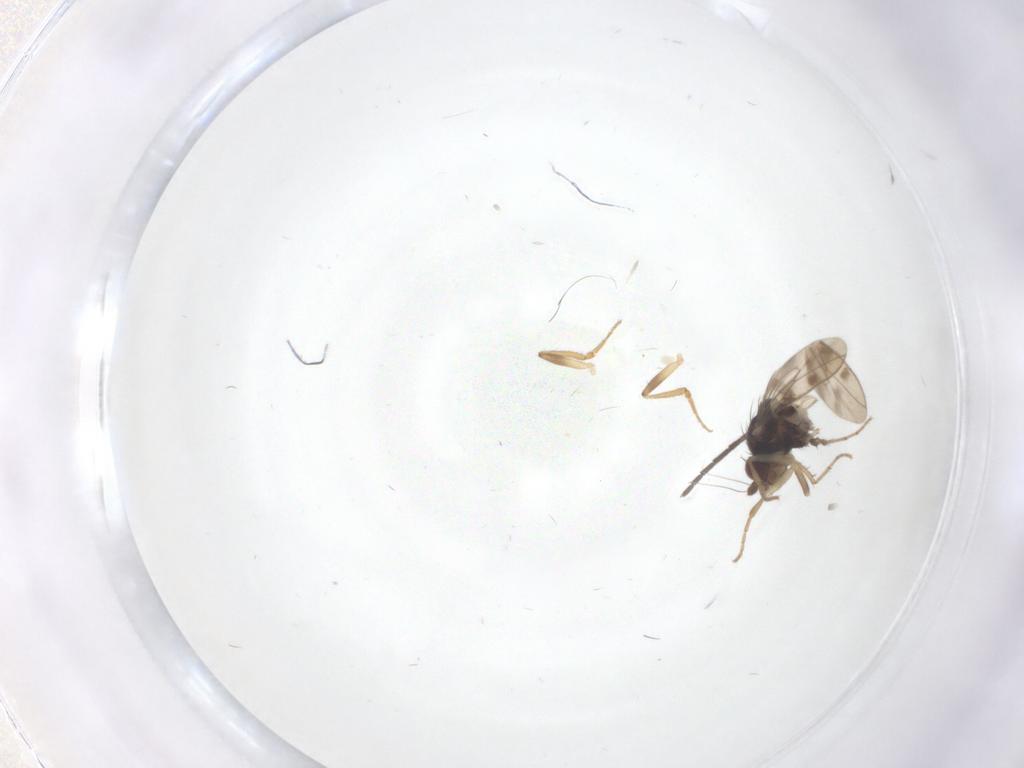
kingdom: Animalia
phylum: Arthropoda
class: Insecta
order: Diptera
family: Sphaeroceridae
